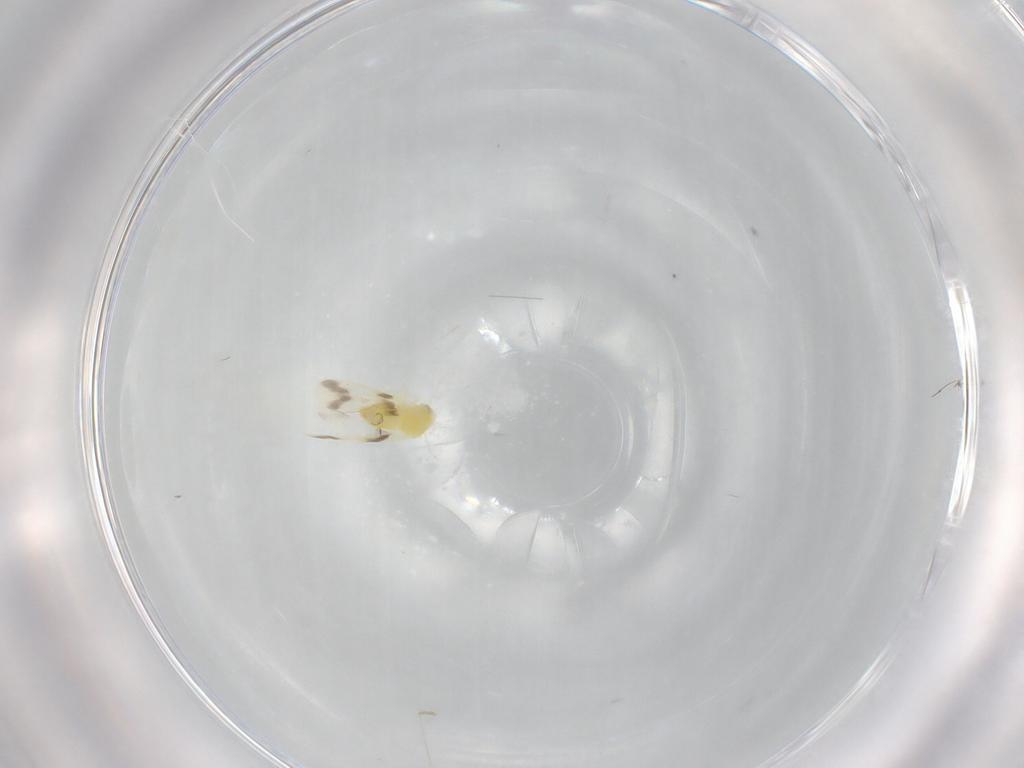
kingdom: Animalia
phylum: Arthropoda
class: Insecta
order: Hemiptera
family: Aleyrodidae
